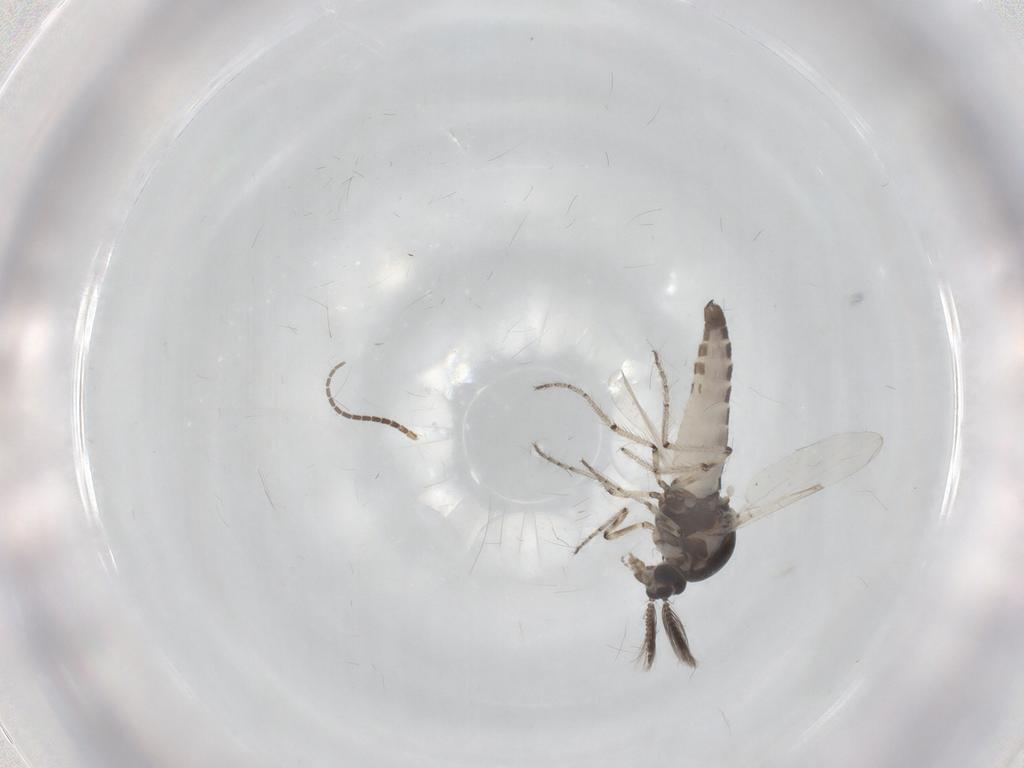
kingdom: Animalia
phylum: Arthropoda
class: Insecta
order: Diptera
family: Ceratopogonidae
